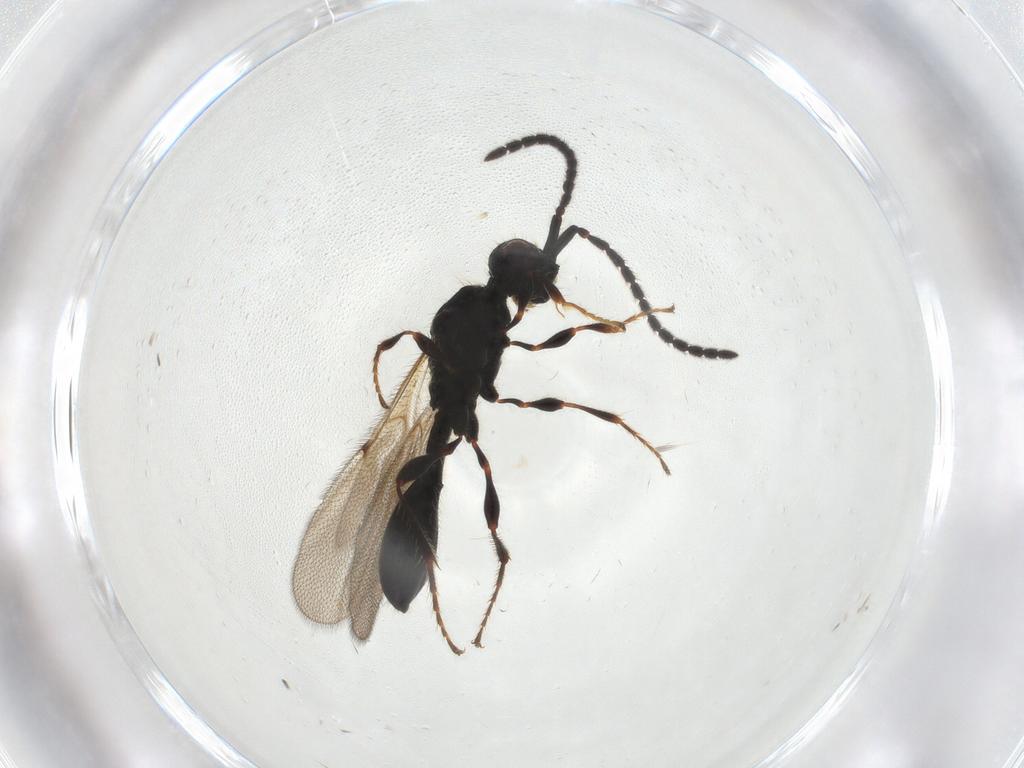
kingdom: Animalia
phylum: Arthropoda
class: Insecta
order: Hymenoptera
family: Diapriidae
